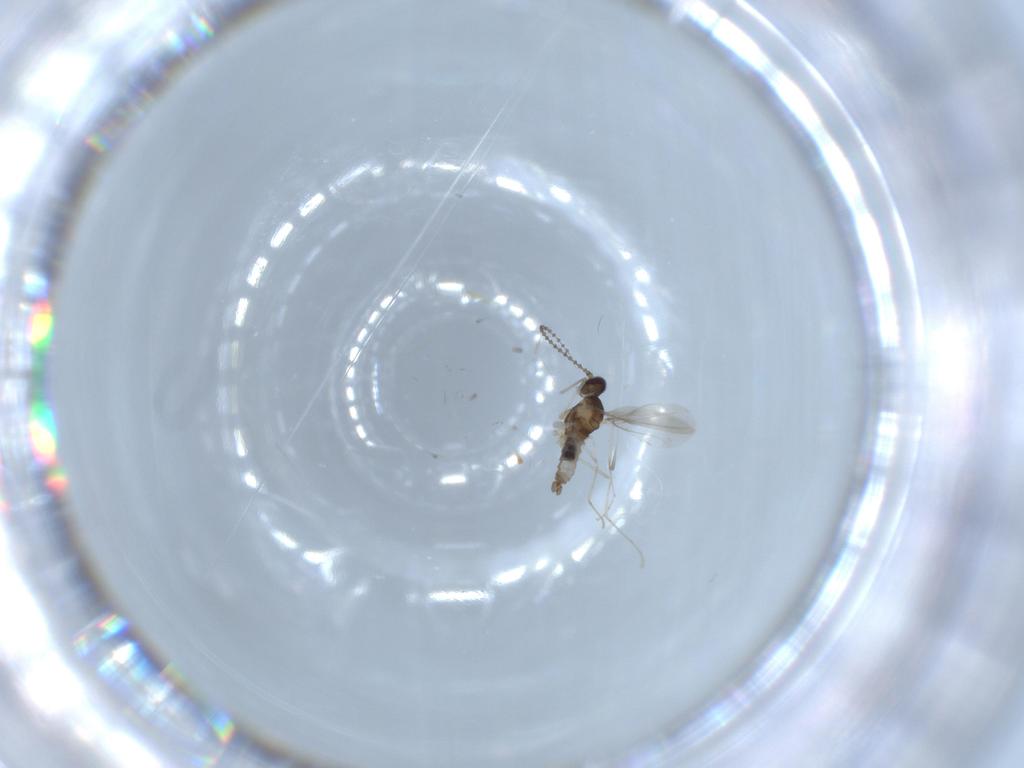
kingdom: Animalia
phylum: Arthropoda
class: Insecta
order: Diptera
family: Cecidomyiidae
